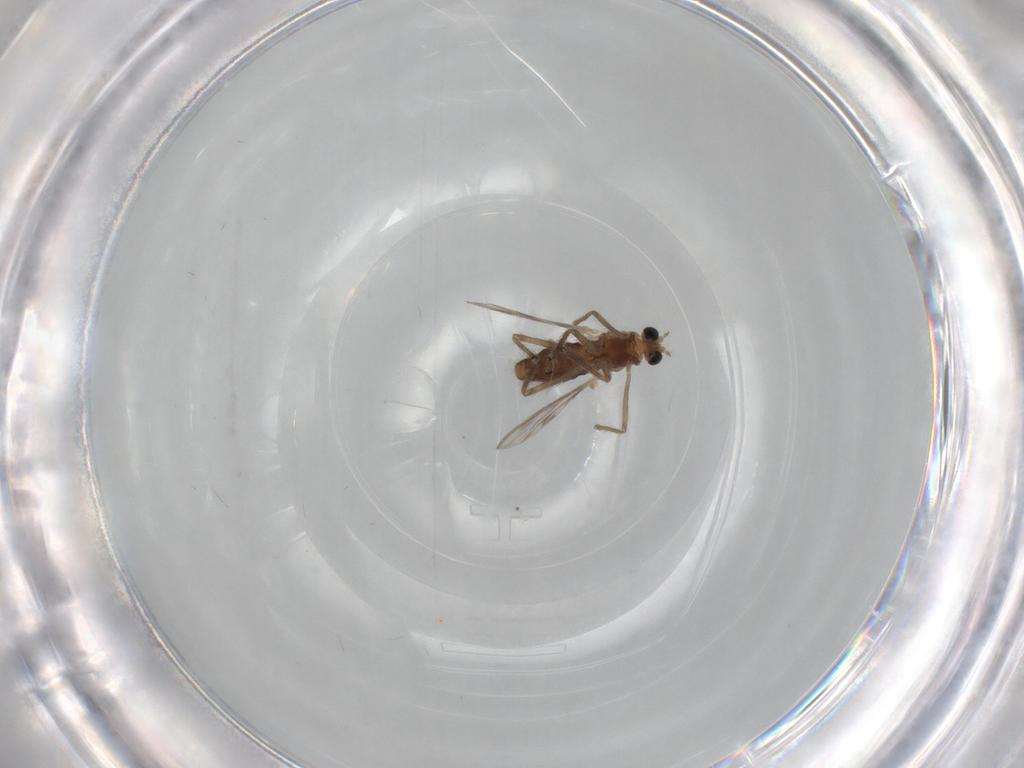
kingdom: Animalia
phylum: Arthropoda
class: Insecta
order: Diptera
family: Chironomidae
